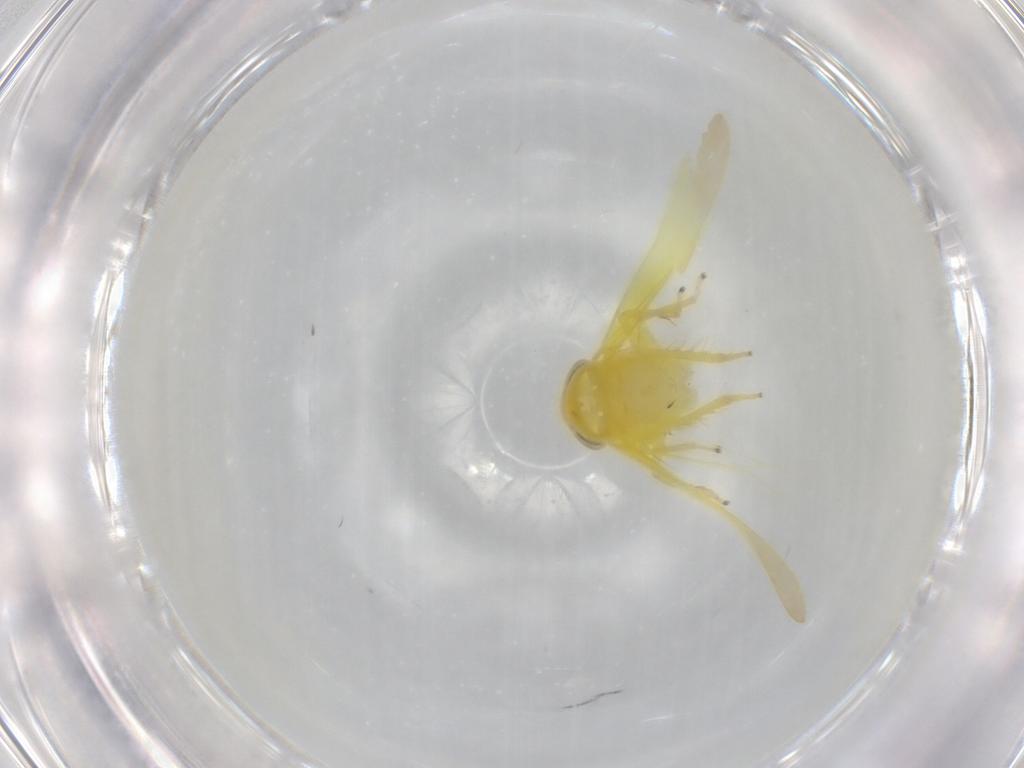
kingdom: Animalia
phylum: Arthropoda
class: Insecta
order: Hemiptera
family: Cicadellidae
